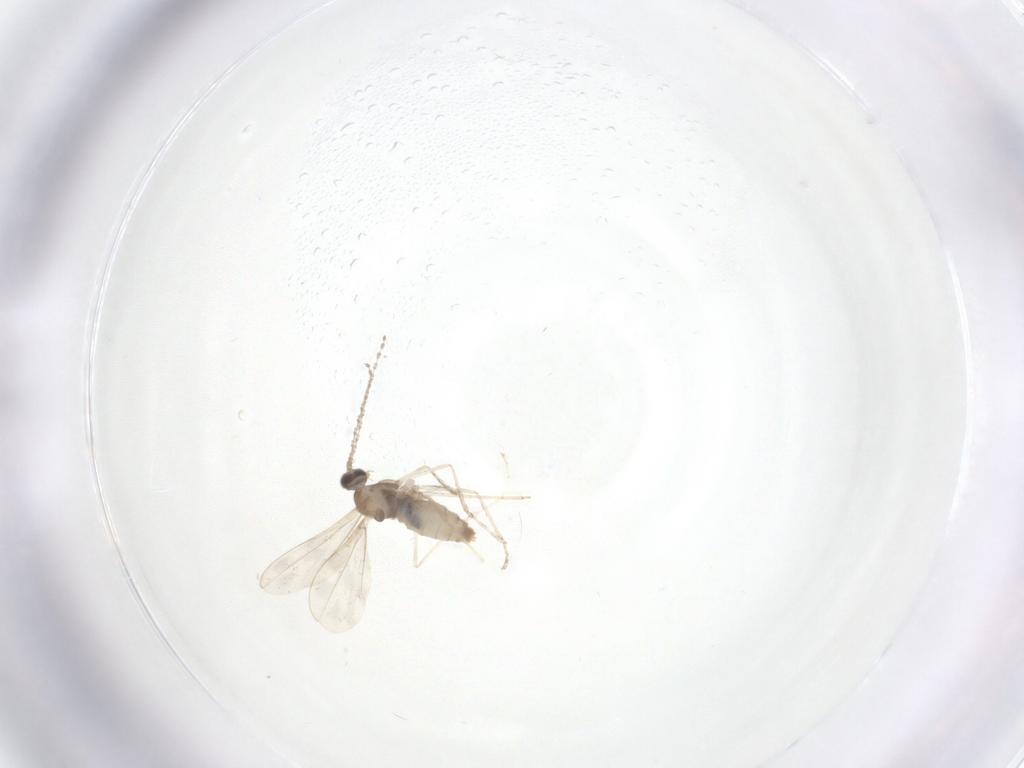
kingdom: Animalia
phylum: Arthropoda
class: Insecta
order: Diptera
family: Cecidomyiidae
